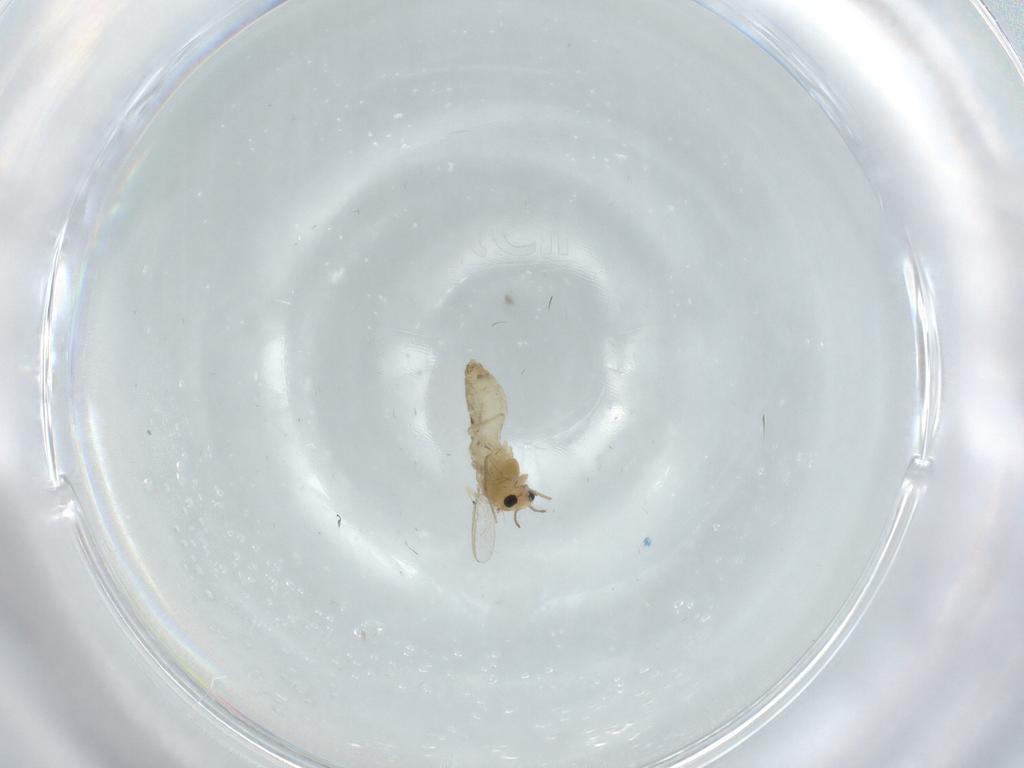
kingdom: Animalia
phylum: Arthropoda
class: Insecta
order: Diptera
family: Chironomidae
